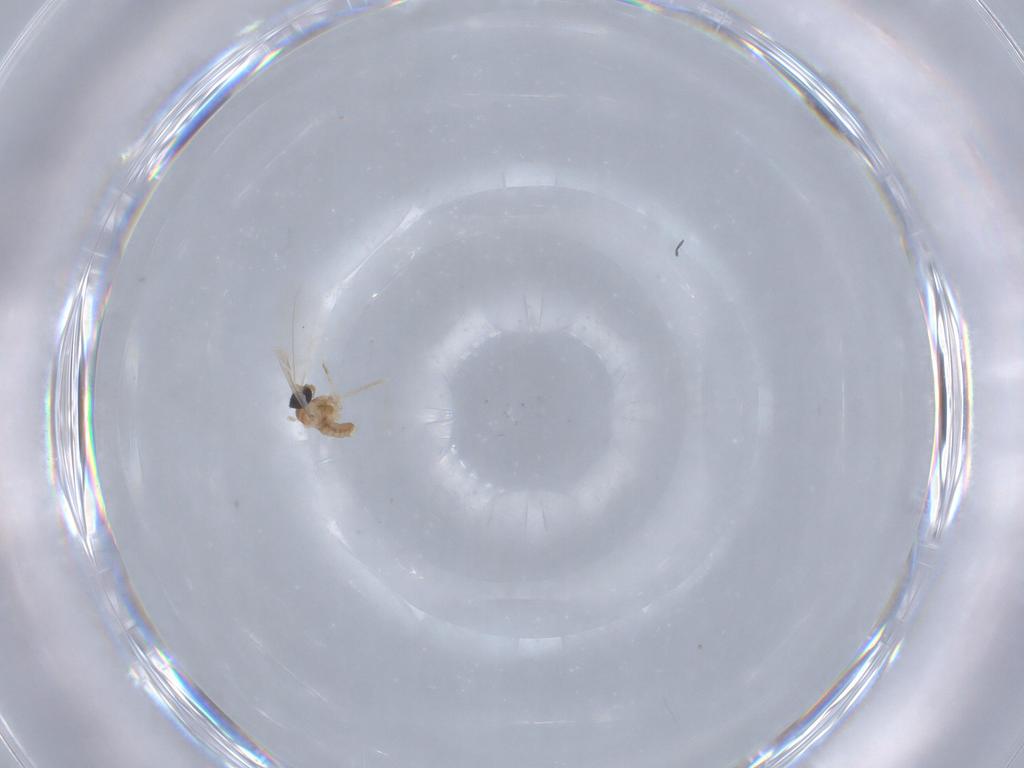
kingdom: Animalia
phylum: Arthropoda
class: Insecta
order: Diptera
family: Cecidomyiidae
